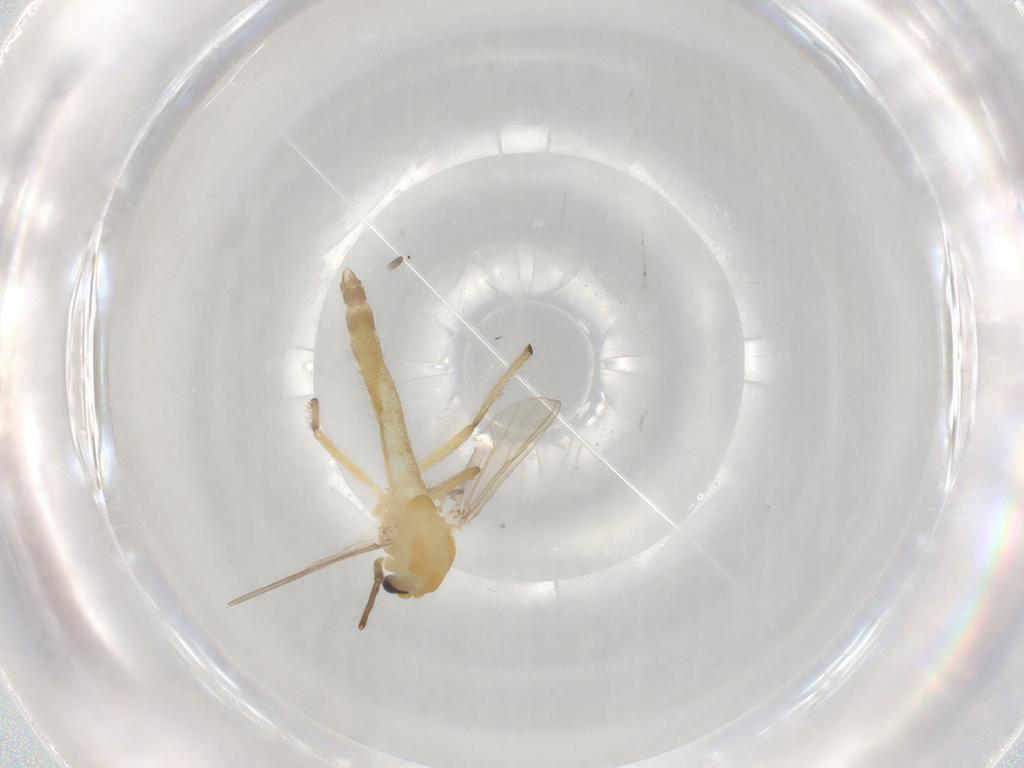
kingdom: Animalia
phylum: Arthropoda
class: Insecta
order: Diptera
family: Chironomidae
